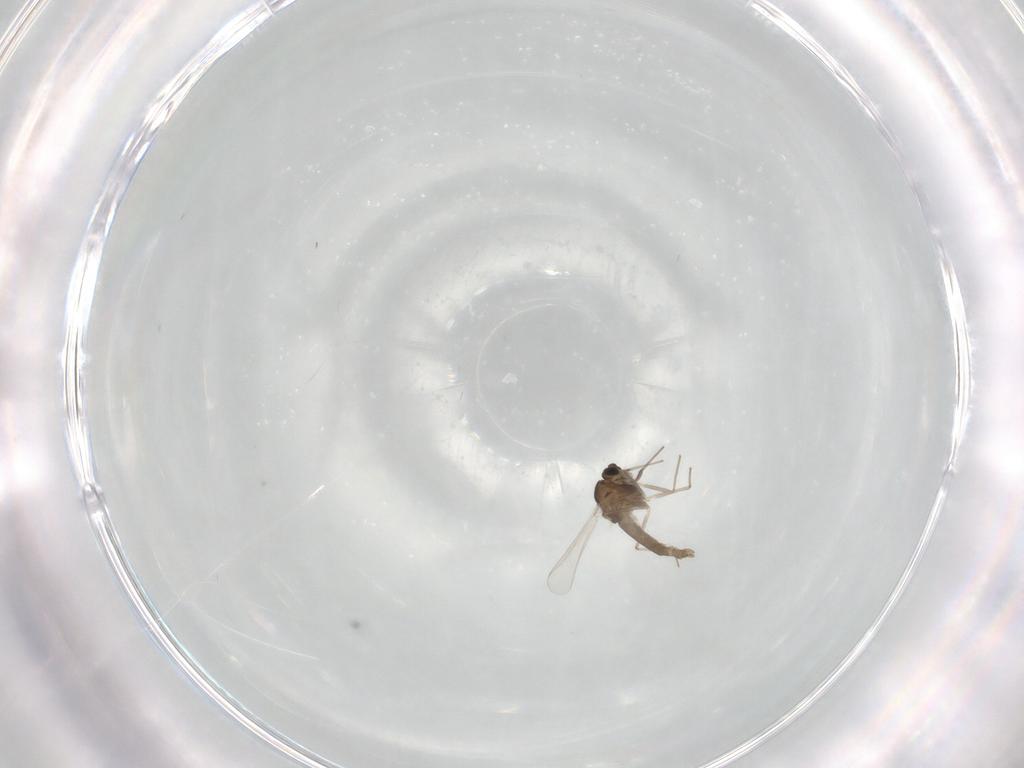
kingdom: Animalia
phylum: Arthropoda
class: Insecta
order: Diptera
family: Chironomidae
